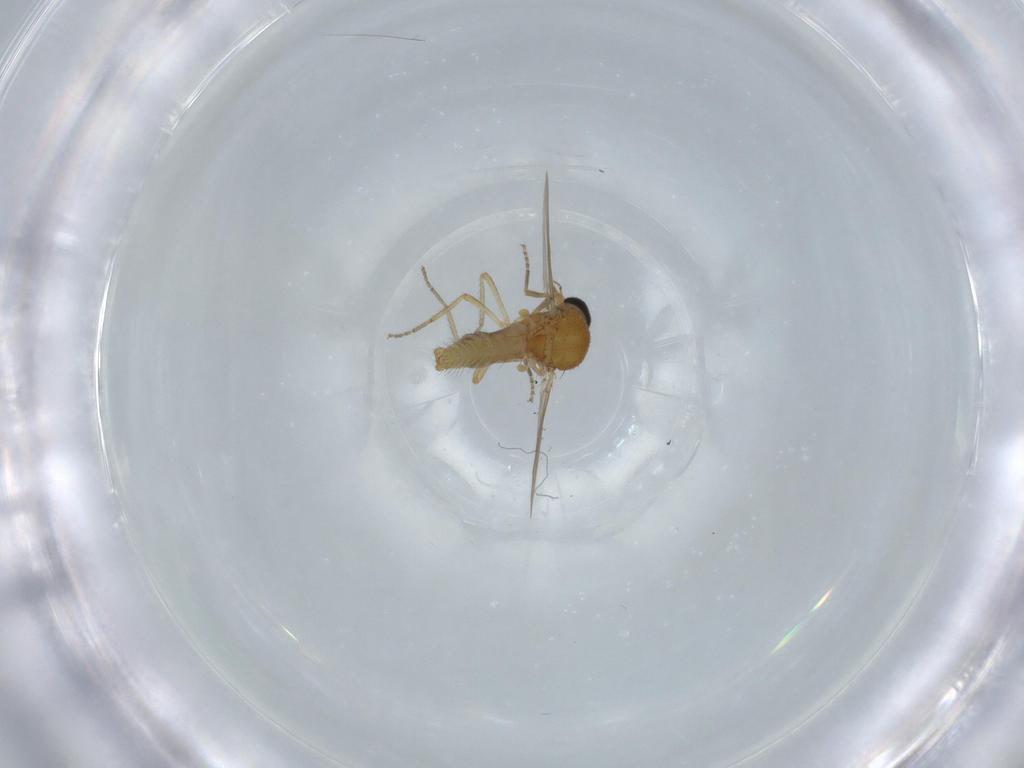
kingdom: Animalia
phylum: Arthropoda
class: Insecta
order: Diptera
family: Ceratopogonidae
